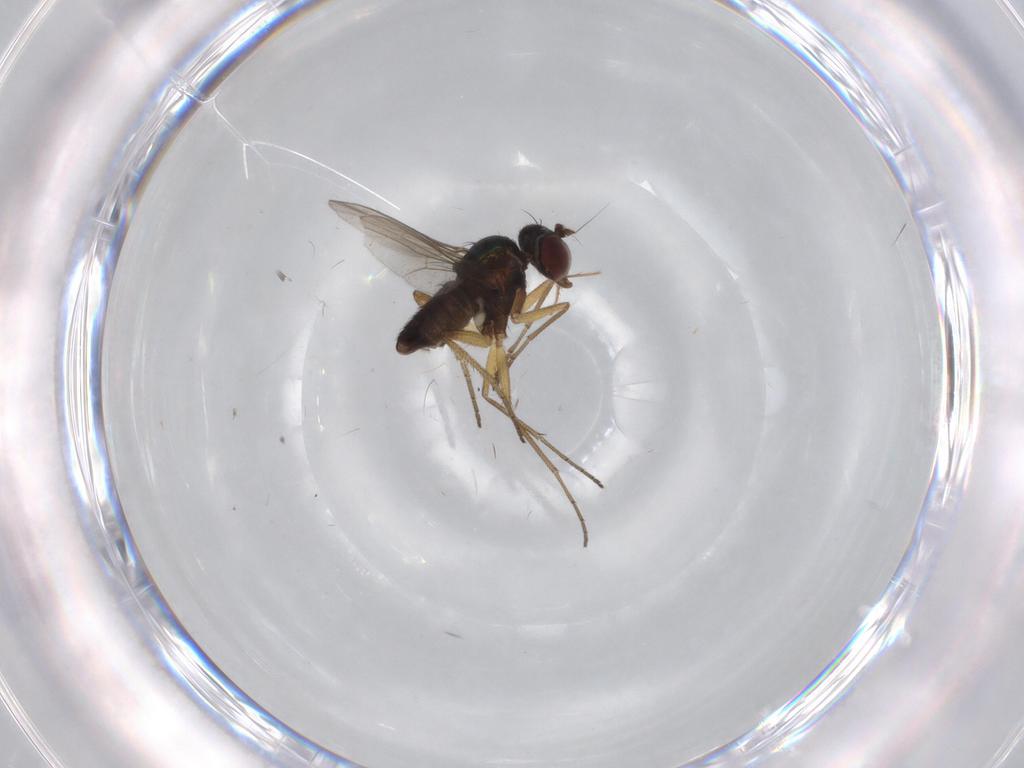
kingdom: Animalia
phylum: Arthropoda
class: Insecta
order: Diptera
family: Dolichopodidae
